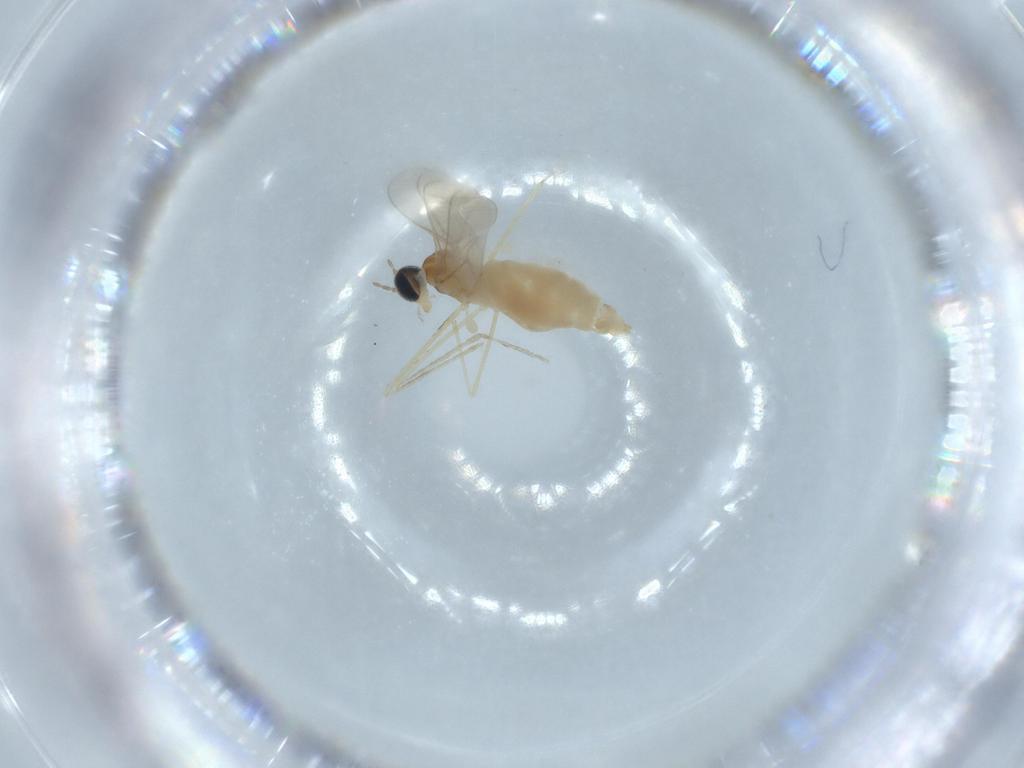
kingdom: Animalia
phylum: Arthropoda
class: Insecta
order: Diptera
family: Cecidomyiidae
